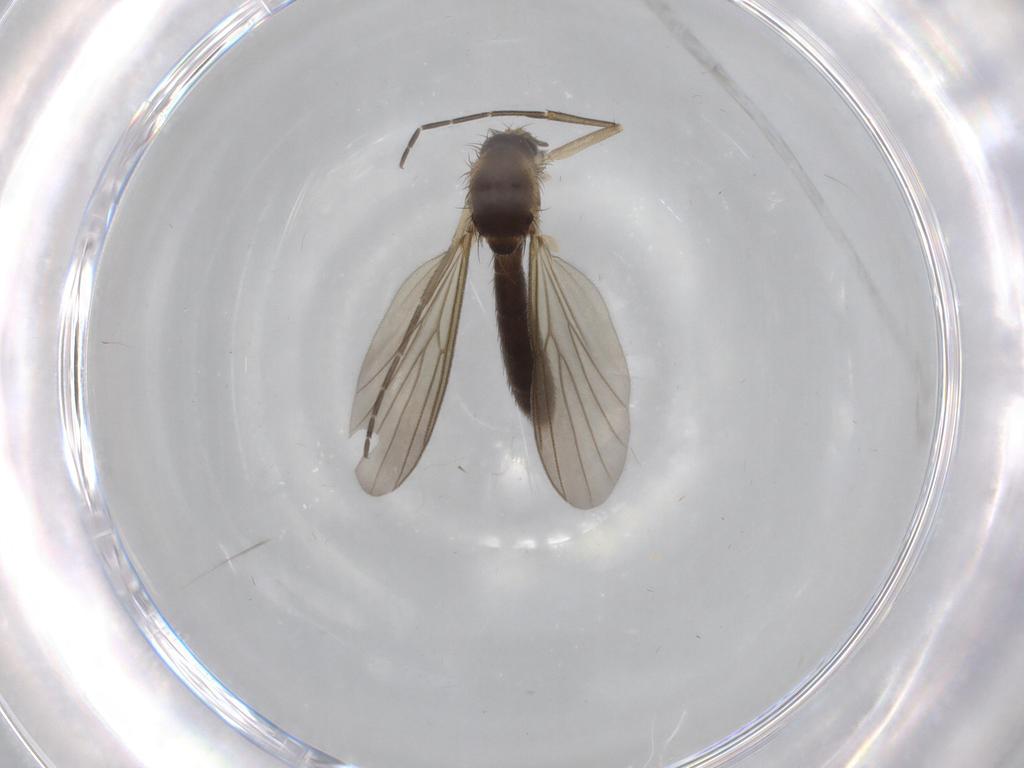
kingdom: Animalia
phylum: Arthropoda
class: Insecta
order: Diptera
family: Mycetophilidae
